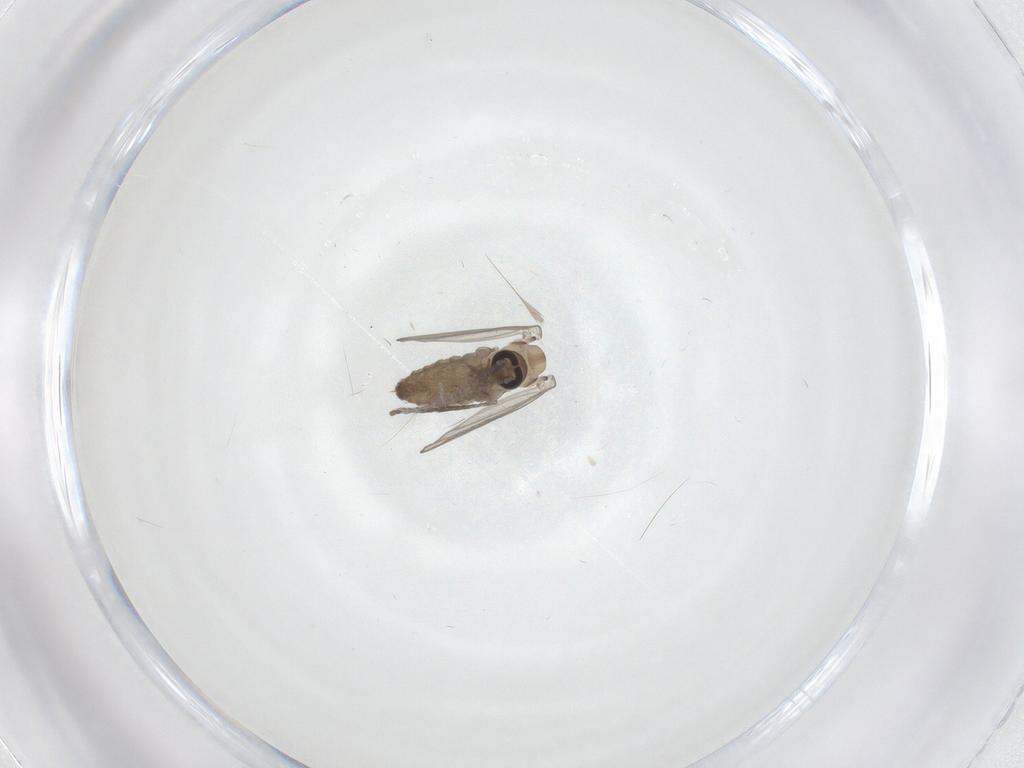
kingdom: Animalia
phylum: Arthropoda
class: Insecta
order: Diptera
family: Psychodidae
